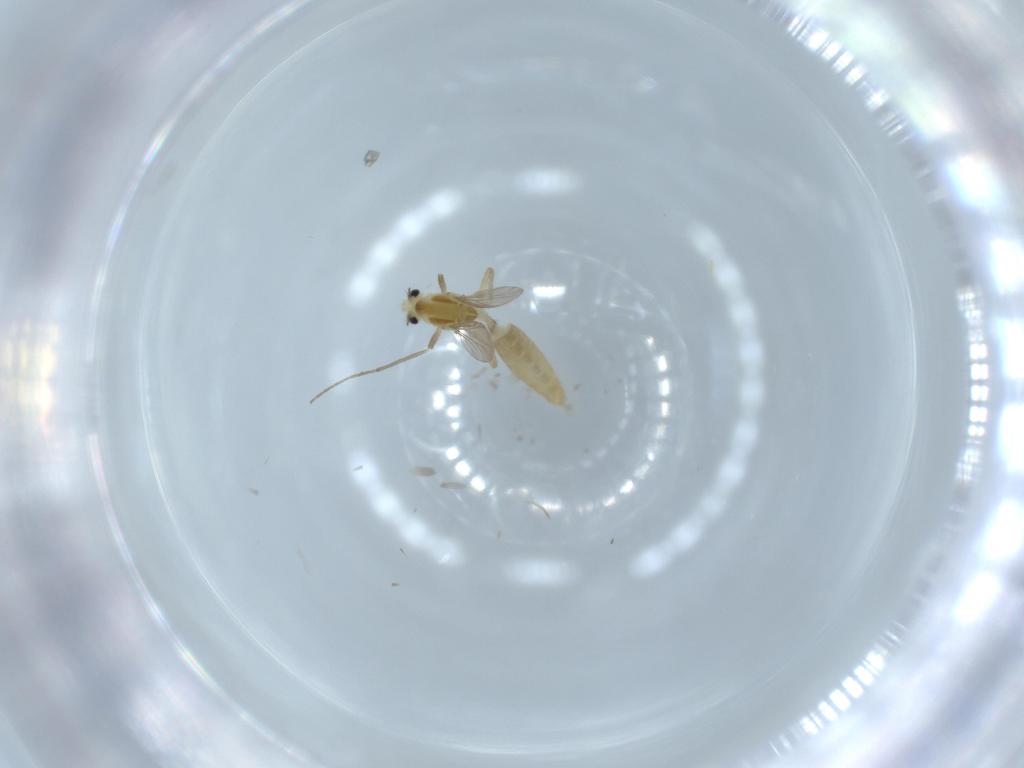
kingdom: Animalia
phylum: Arthropoda
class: Insecta
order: Diptera
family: Chironomidae
